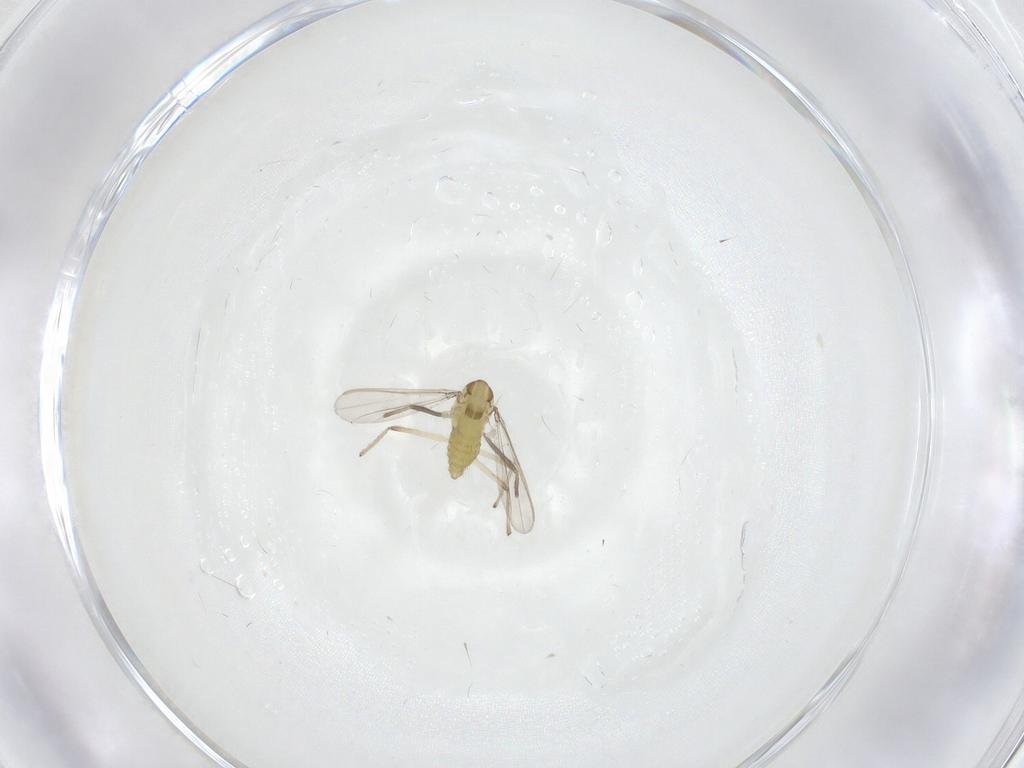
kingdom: Animalia
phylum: Arthropoda
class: Insecta
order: Diptera
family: Chironomidae
